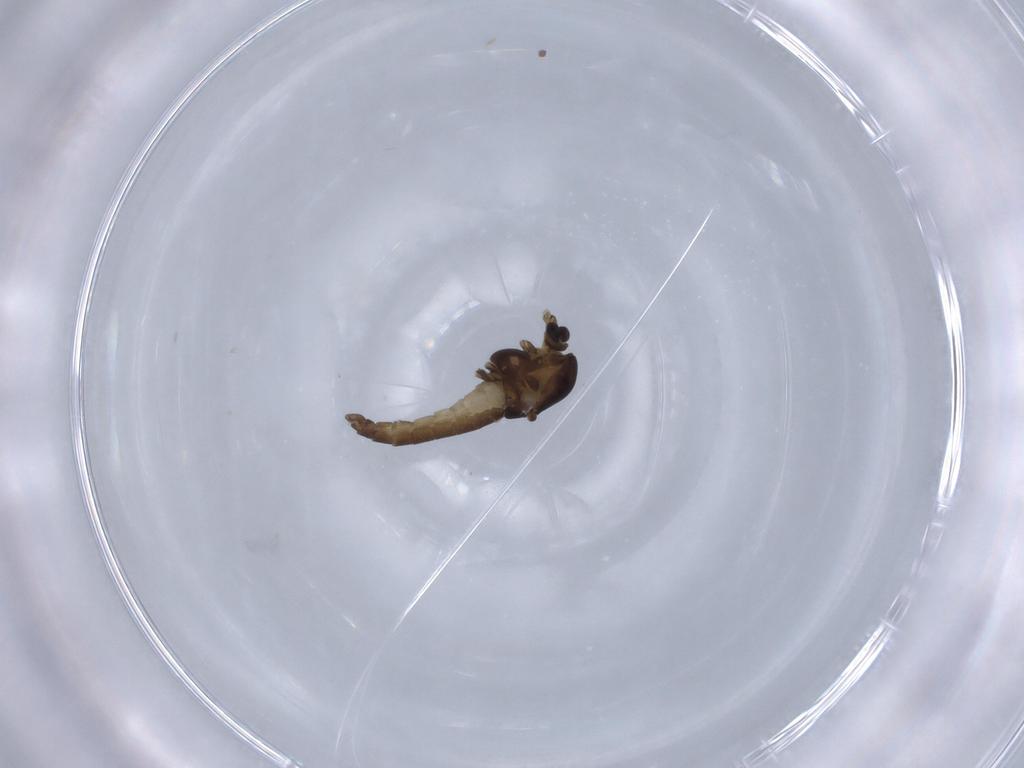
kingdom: Animalia
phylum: Arthropoda
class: Insecta
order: Diptera
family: Chironomidae
